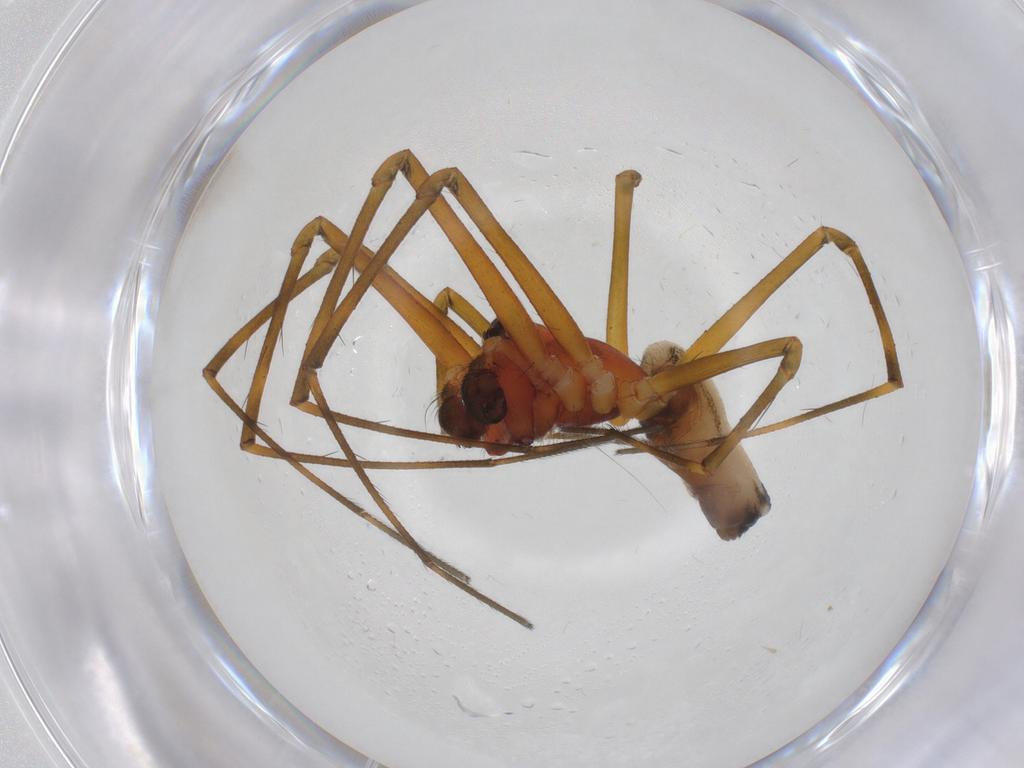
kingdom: Animalia
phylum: Arthropoda
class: Arachnida
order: Araneae
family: Linyphiidae
